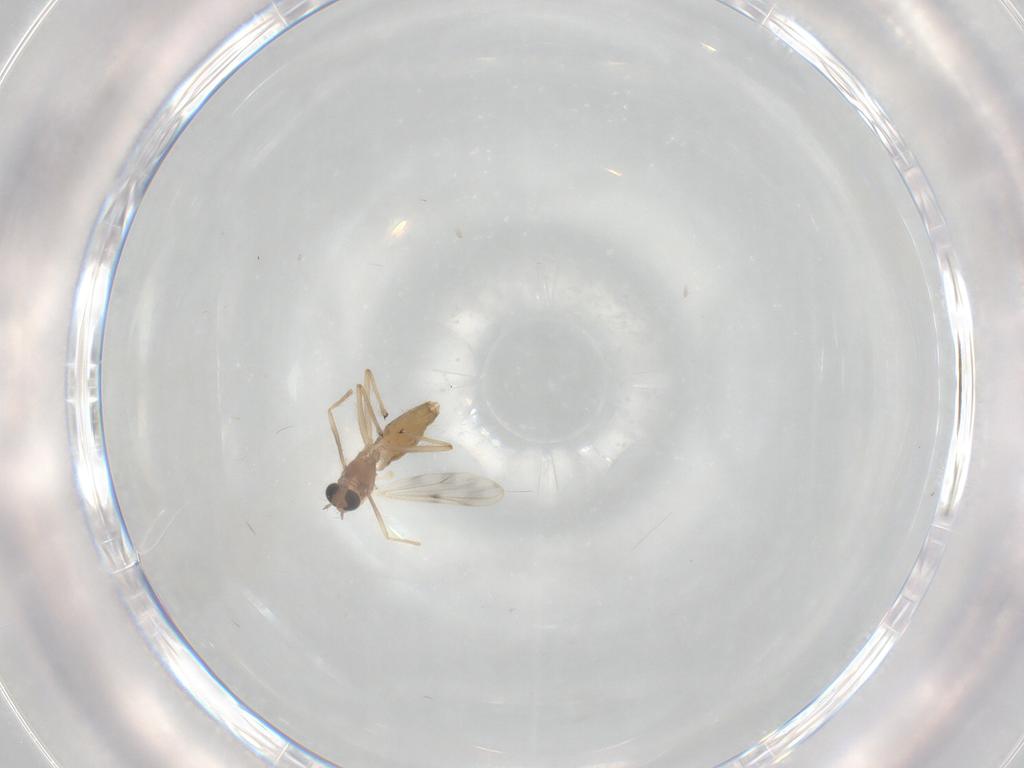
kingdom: Animalia
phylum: Arthropoda
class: Insecta
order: Diptera
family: Chironomidae
